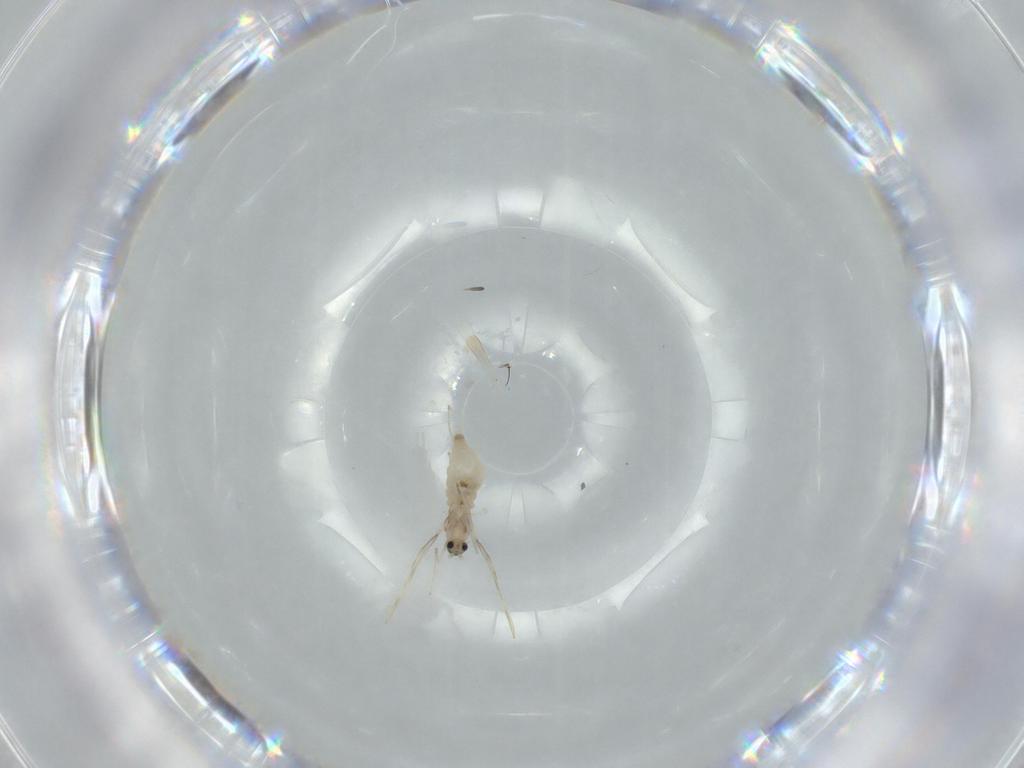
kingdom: Animalia
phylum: Arthropoda
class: Insecta
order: Diptera
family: Cecidomyiidae
